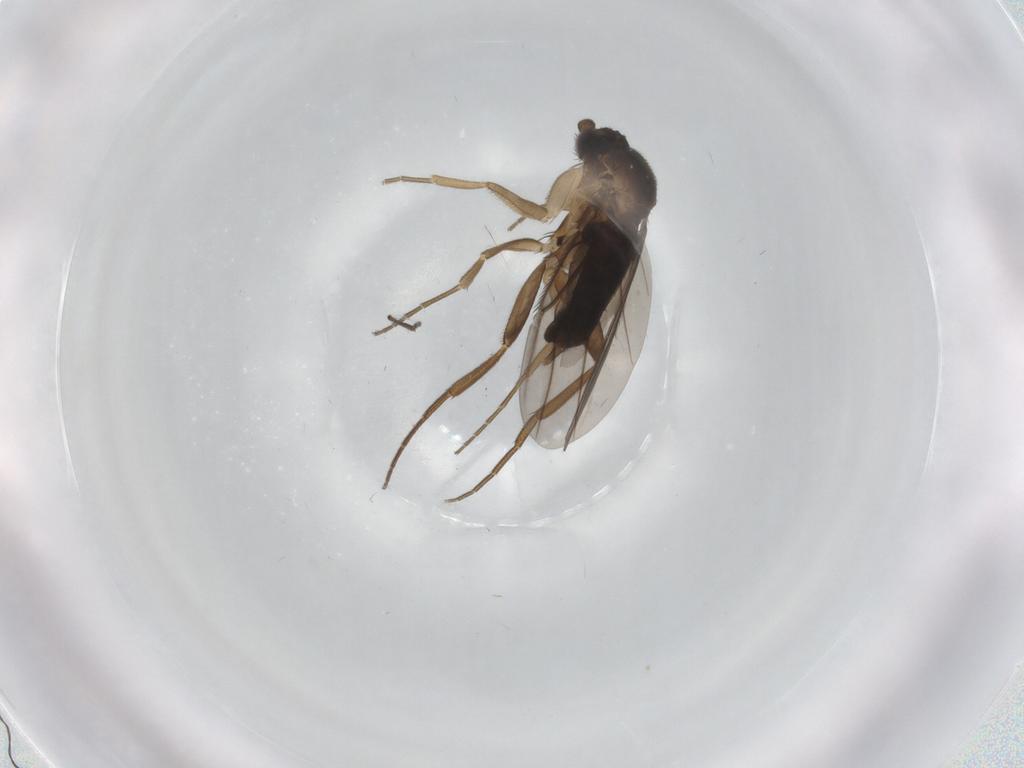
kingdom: Animalia
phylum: Arthropoda
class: Insecta
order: Diptera
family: Phoridae
